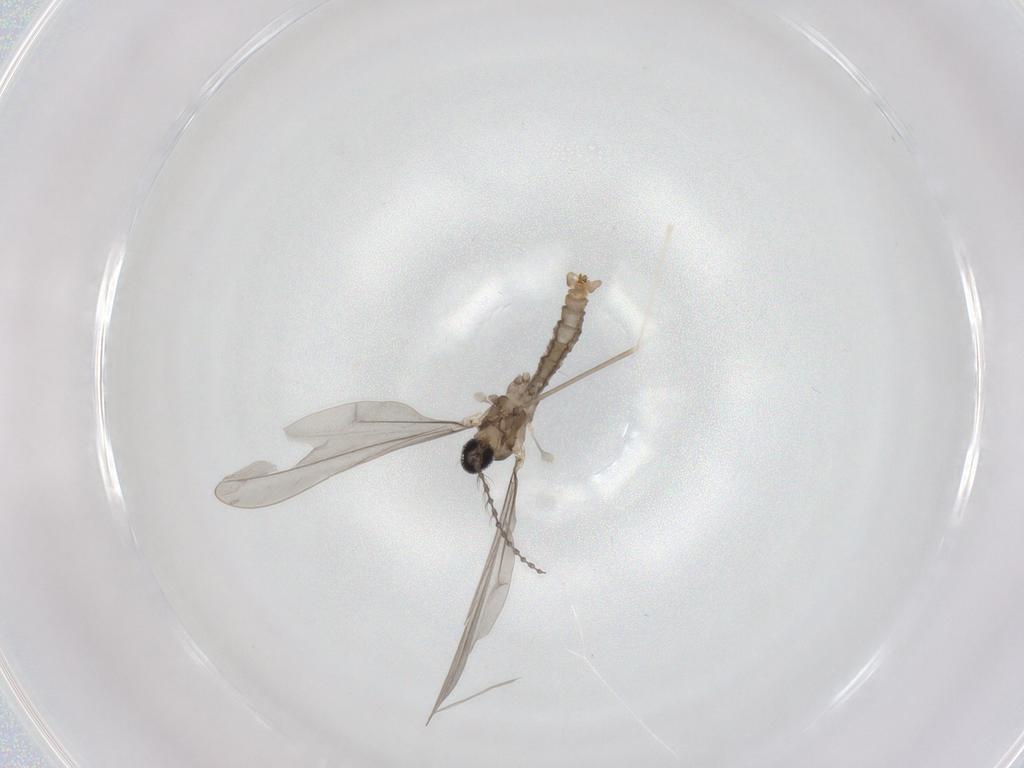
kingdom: Animalia
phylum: Arthropoda
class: Insecta
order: Diptera
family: Cecidomyiidae
